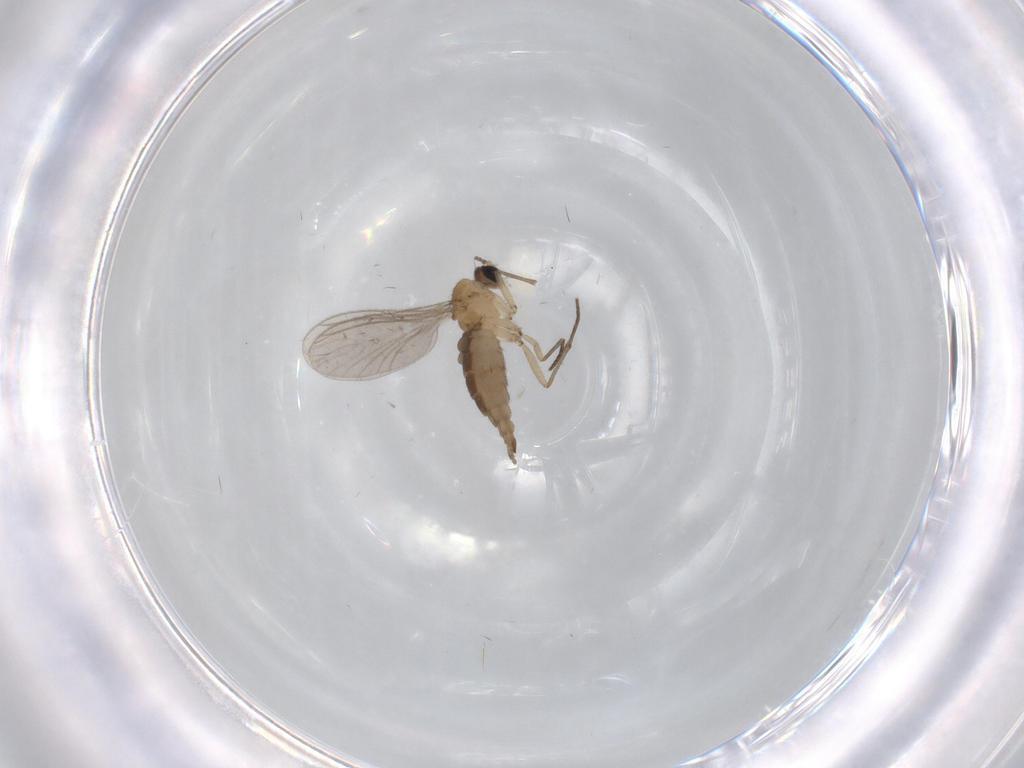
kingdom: Animalia
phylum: Arthropoda
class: Insecta
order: Diptera
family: Sciaridae
